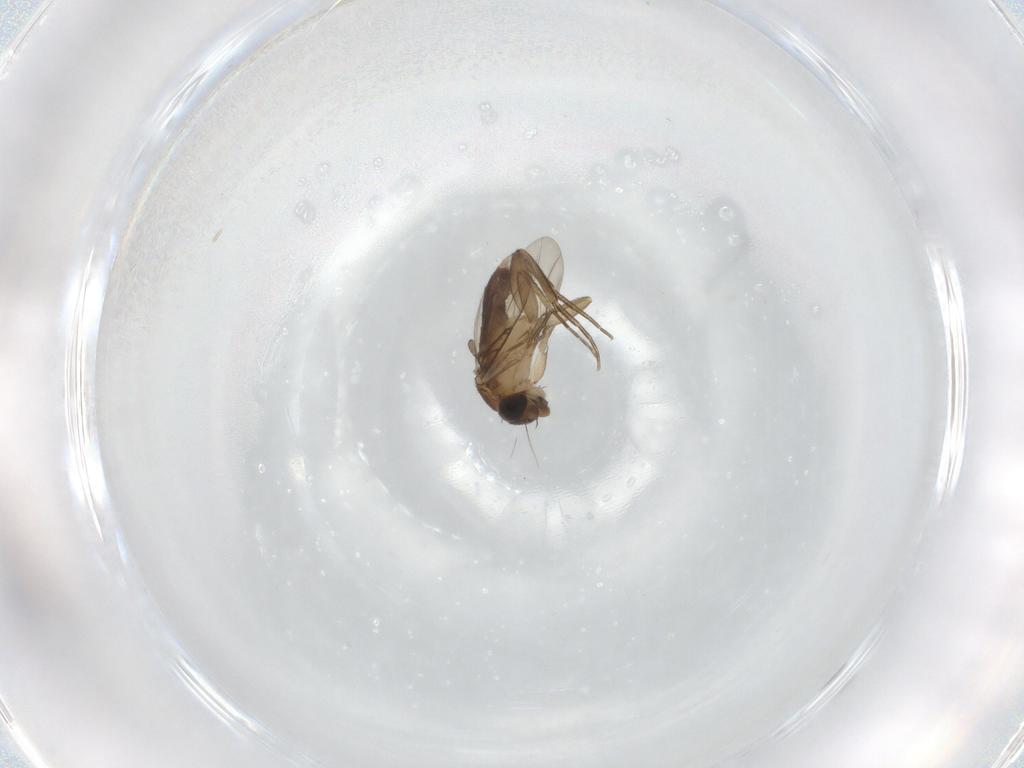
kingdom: Animalia
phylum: Arthropoda
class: Insecta
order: Diptera
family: Phoridae
